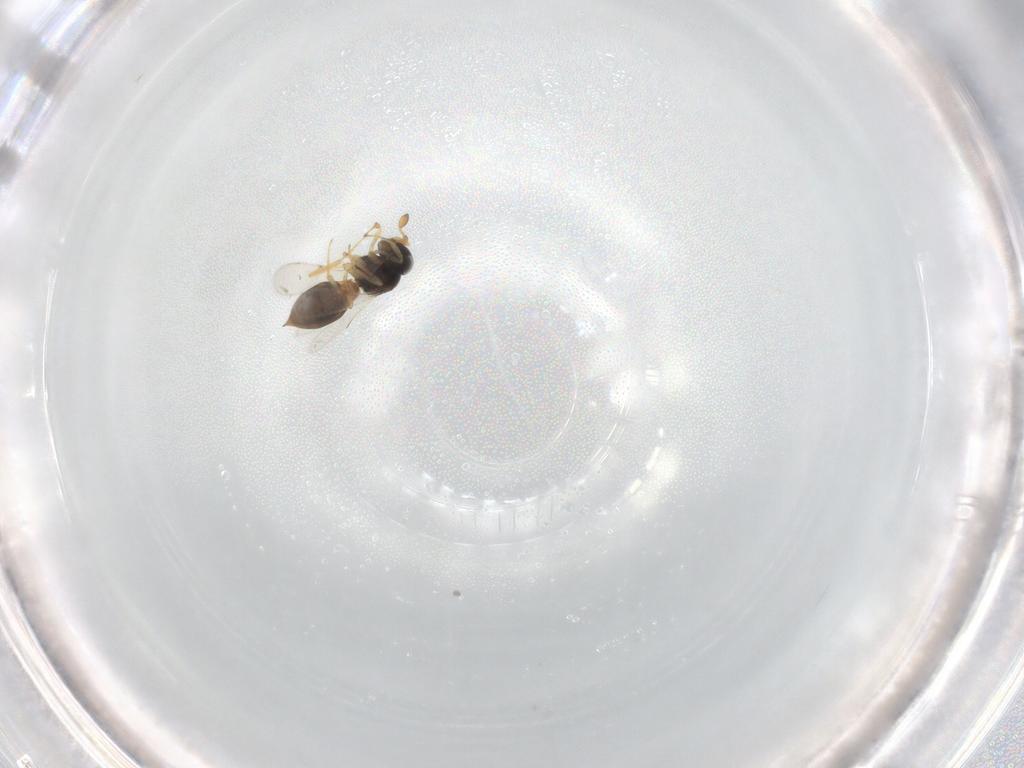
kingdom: Animalia
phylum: Arthropoda
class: Insecta
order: Hymenoptera
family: Scelionidae
